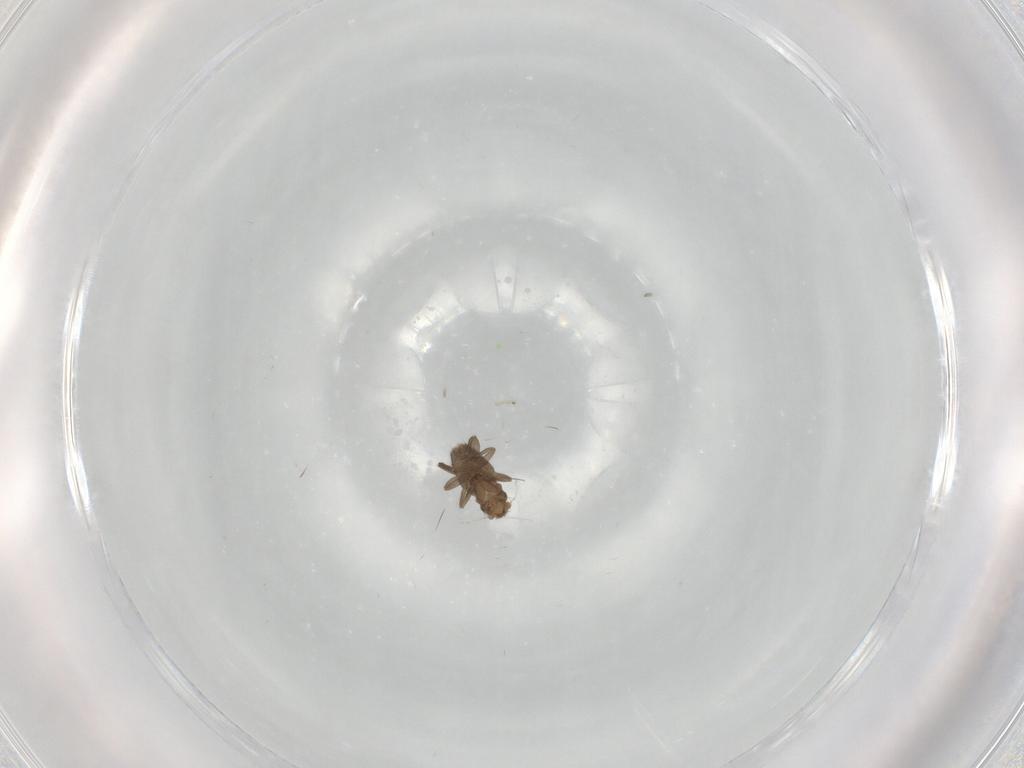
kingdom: Animalia
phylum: Arthropoda
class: Insecta
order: Diptera
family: Phoridae
